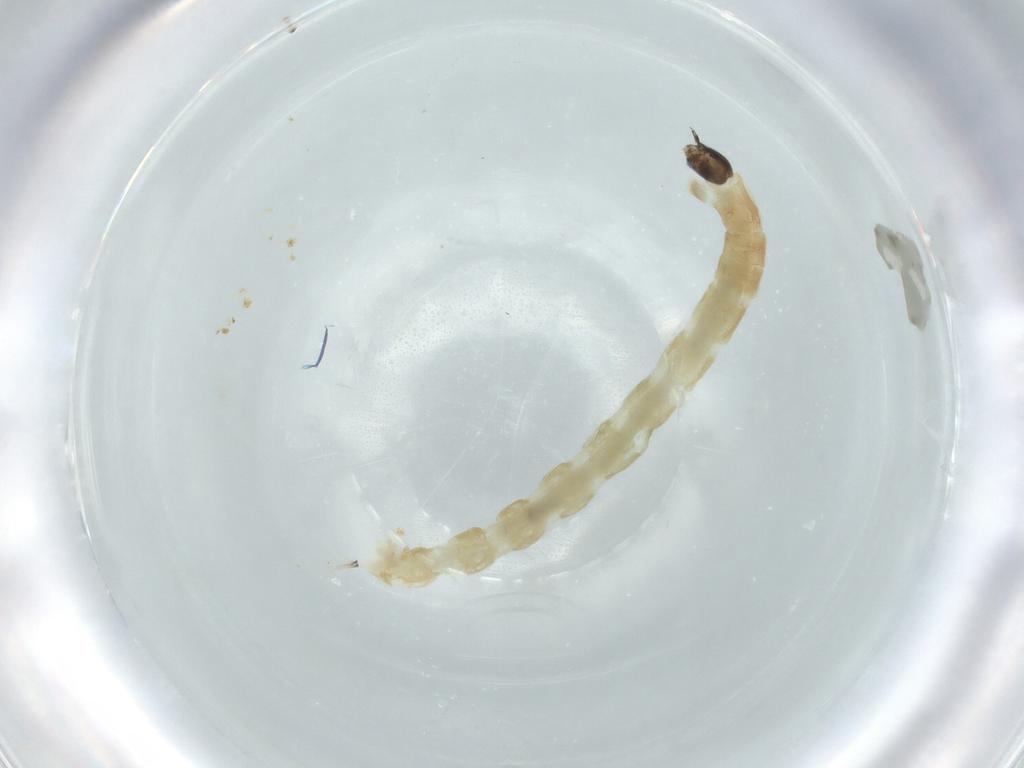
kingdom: Animalia
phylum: Arthropoda
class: Insecta
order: Diptera
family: Chironomidae
